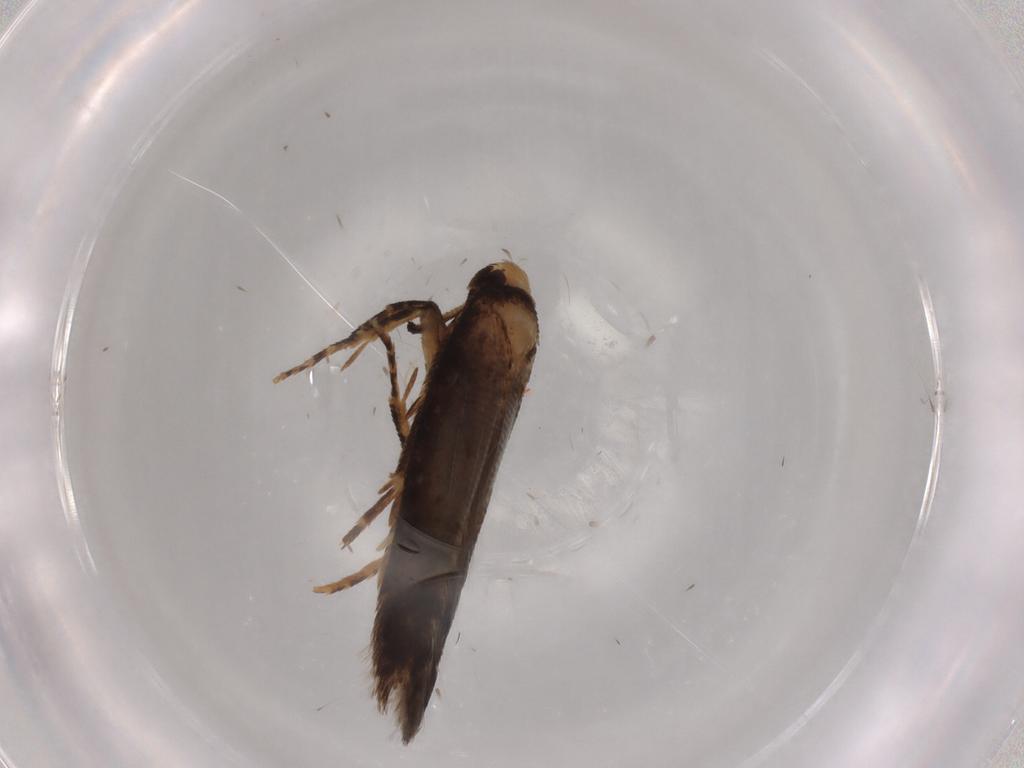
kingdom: Animalia
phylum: Arthropoda
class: Insecta
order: Lepidoptera
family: Cosmopterigidae
